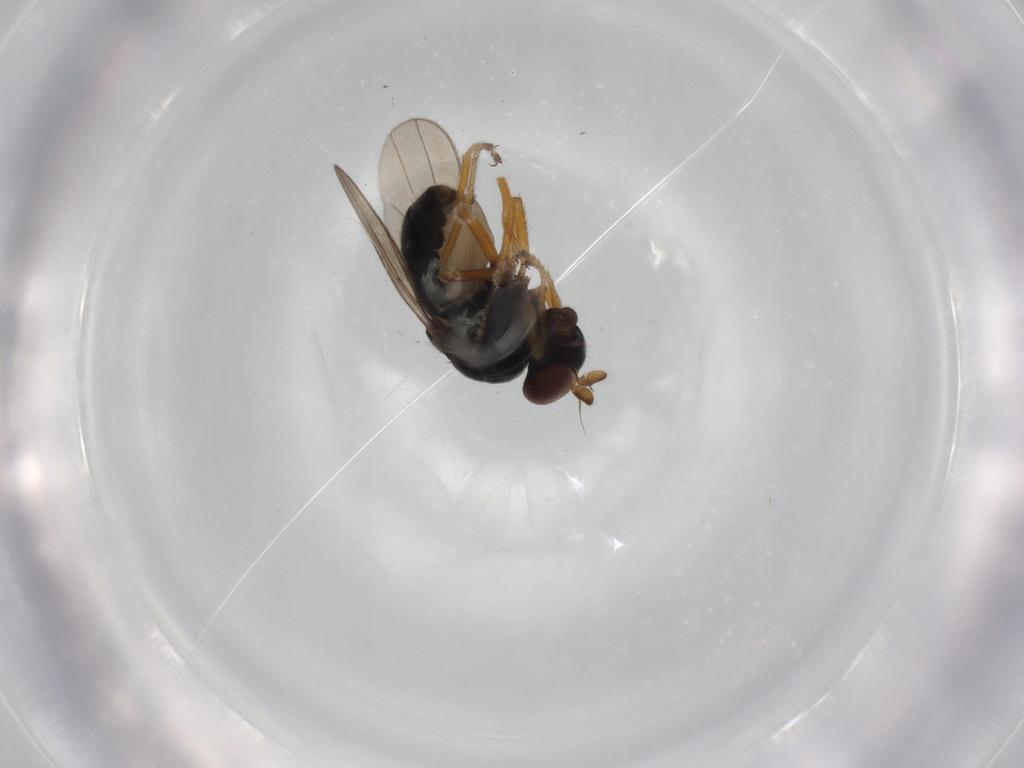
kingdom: Animalia
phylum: Arthropoda
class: Insecta
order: Diptera
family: Ephydridae
